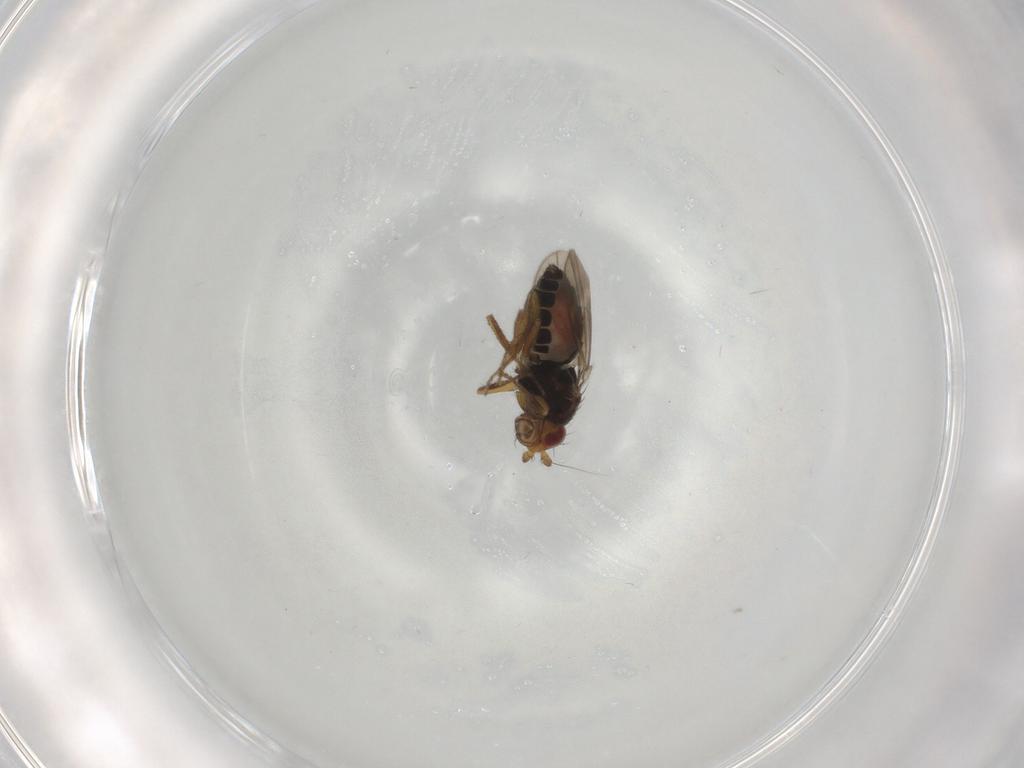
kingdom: Animalia
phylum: Arthropoda
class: Insecta
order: Diptera
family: Sphaeroceridae
